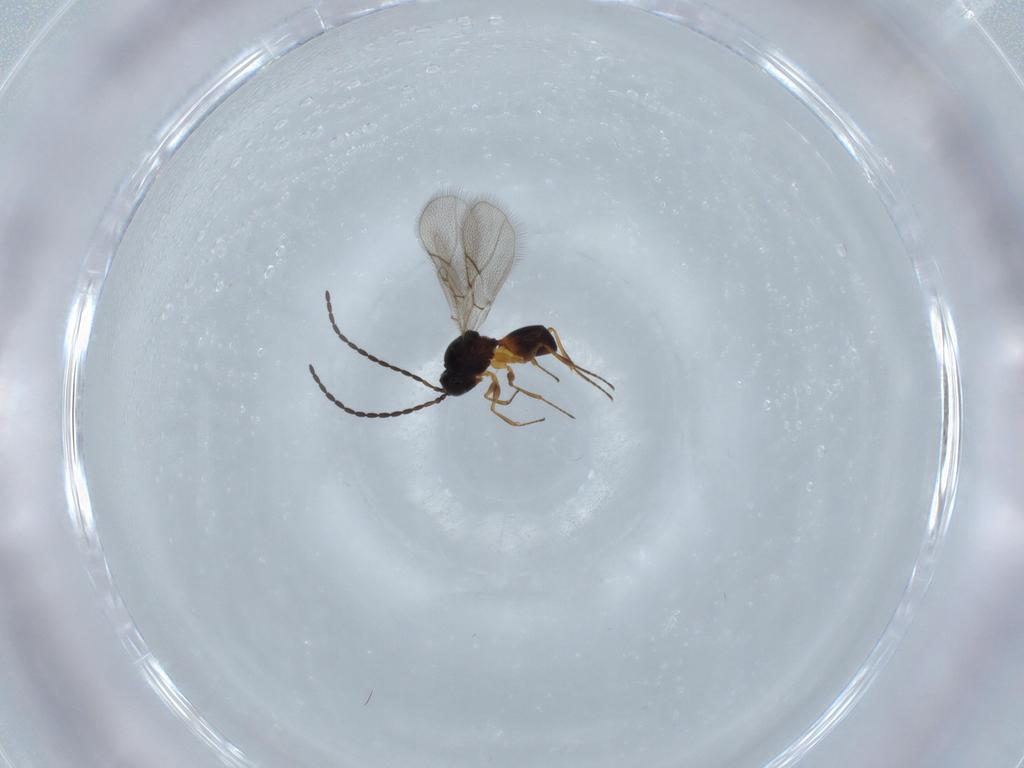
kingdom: Animalia
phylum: Arthropoda
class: Insecta
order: Hymenoptera
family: Figitidae
